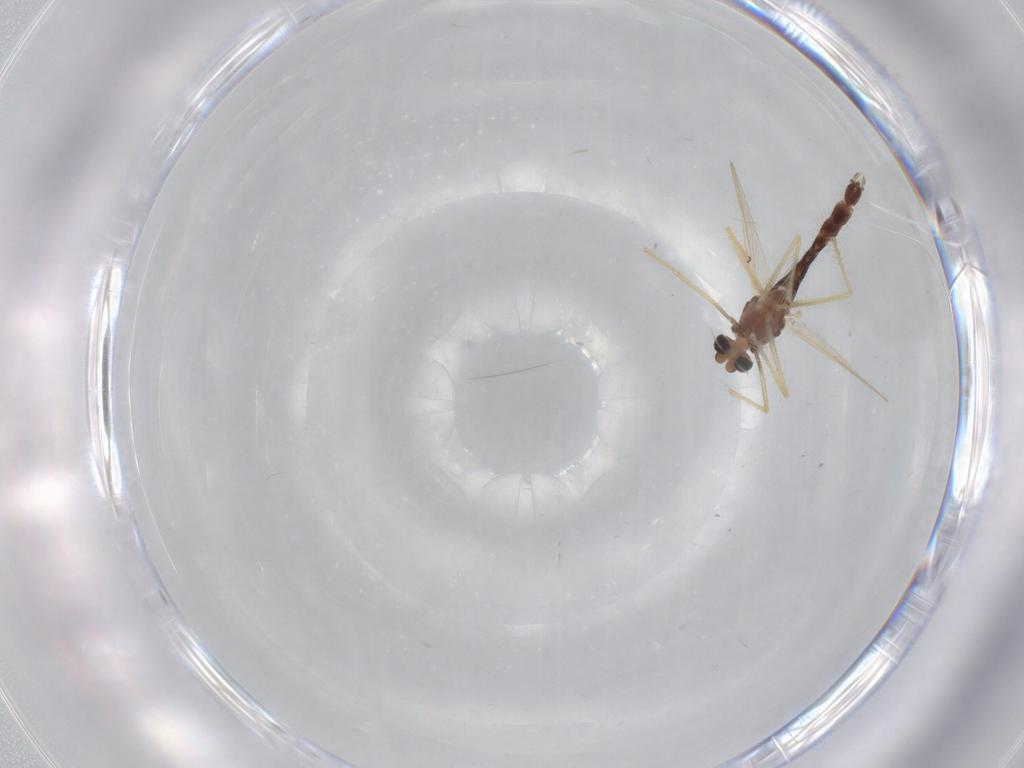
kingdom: Animalia
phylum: Arthropoda
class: Insecta
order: Diptera
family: Chironomidae
